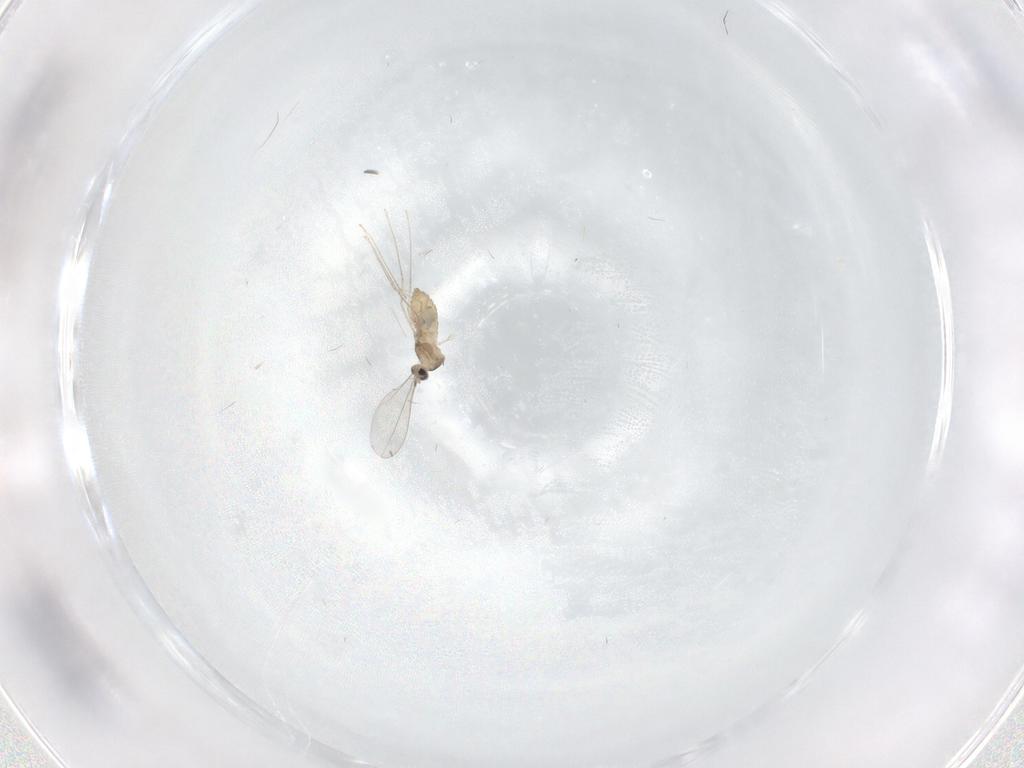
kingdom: Animalia
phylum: Arthropoda
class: Insecta
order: Diptera
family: Cecidomyiidae
